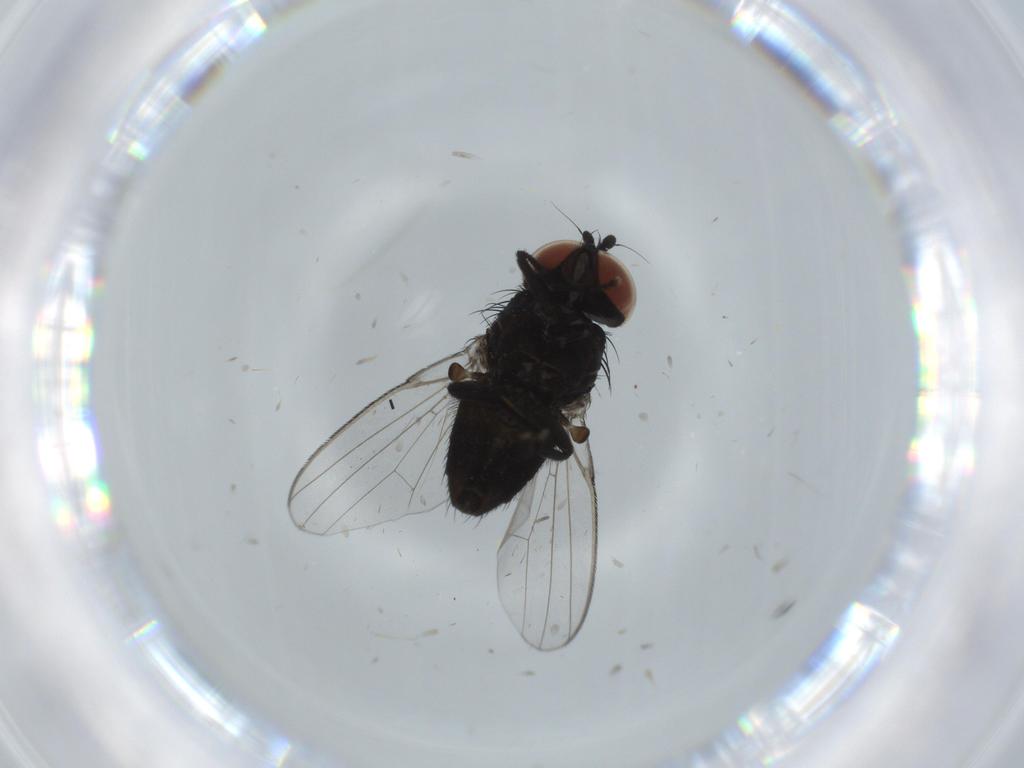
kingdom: Animalia
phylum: Arthropoda
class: Insecta
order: Diptera
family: Milichiidae
